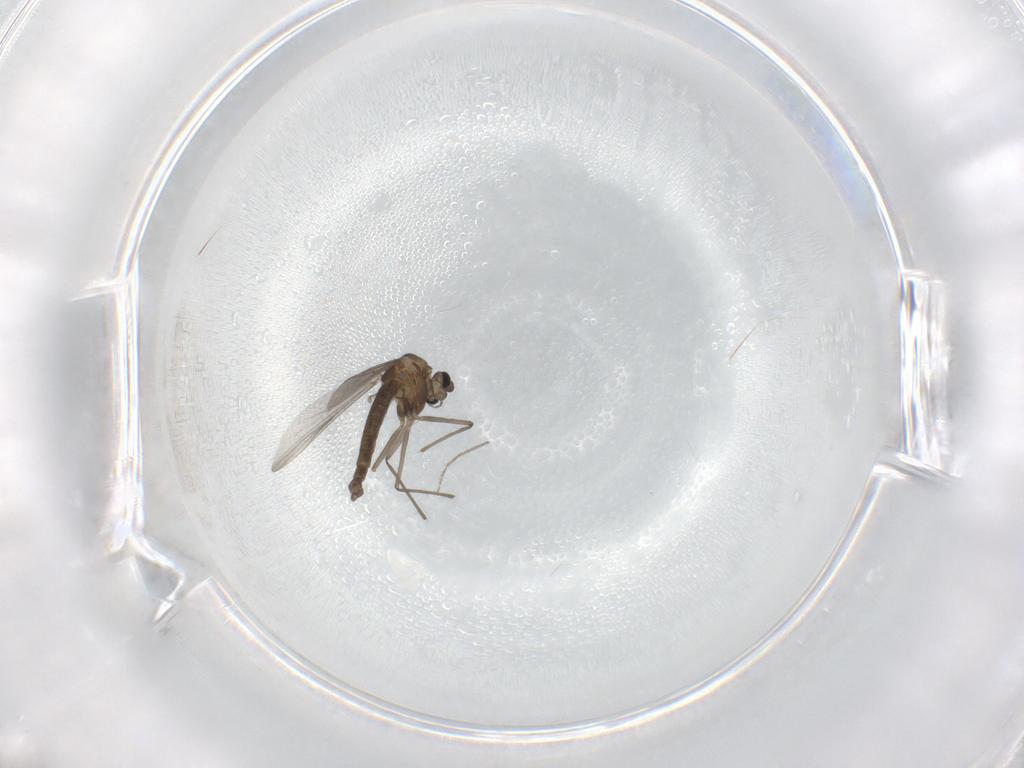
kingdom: Animalia
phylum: Arthropoda
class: Insecta
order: Diptera
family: Chironomidae
